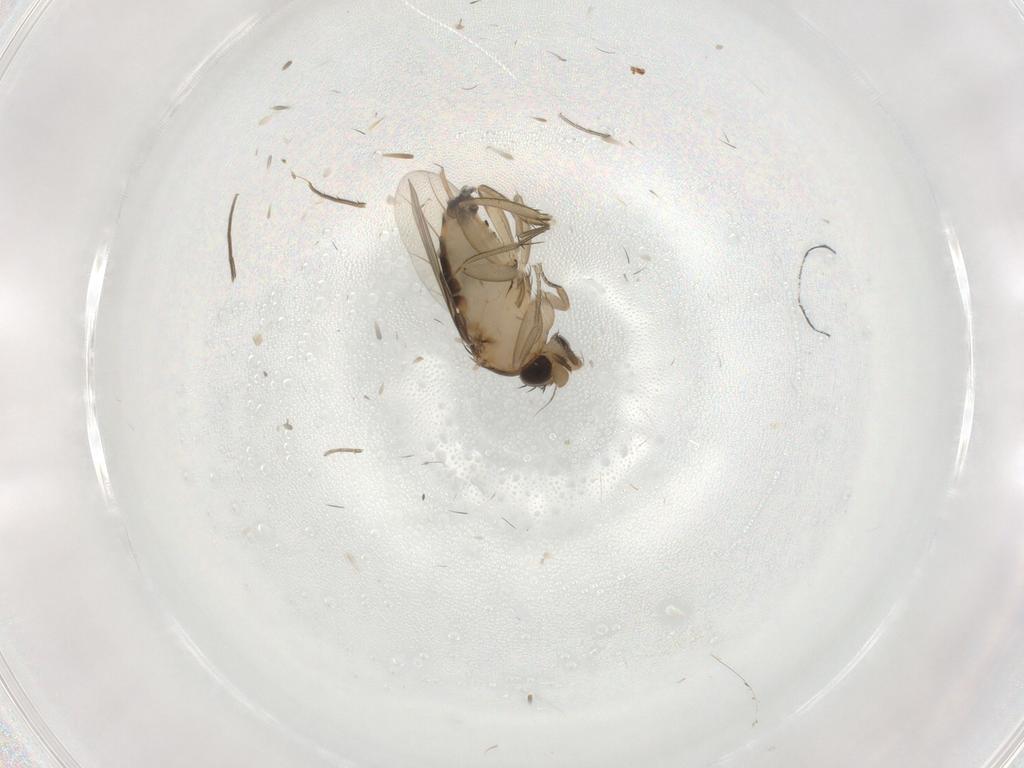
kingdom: Animalia
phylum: Arthropoda
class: Insecta
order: Diptera
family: Phoridae
